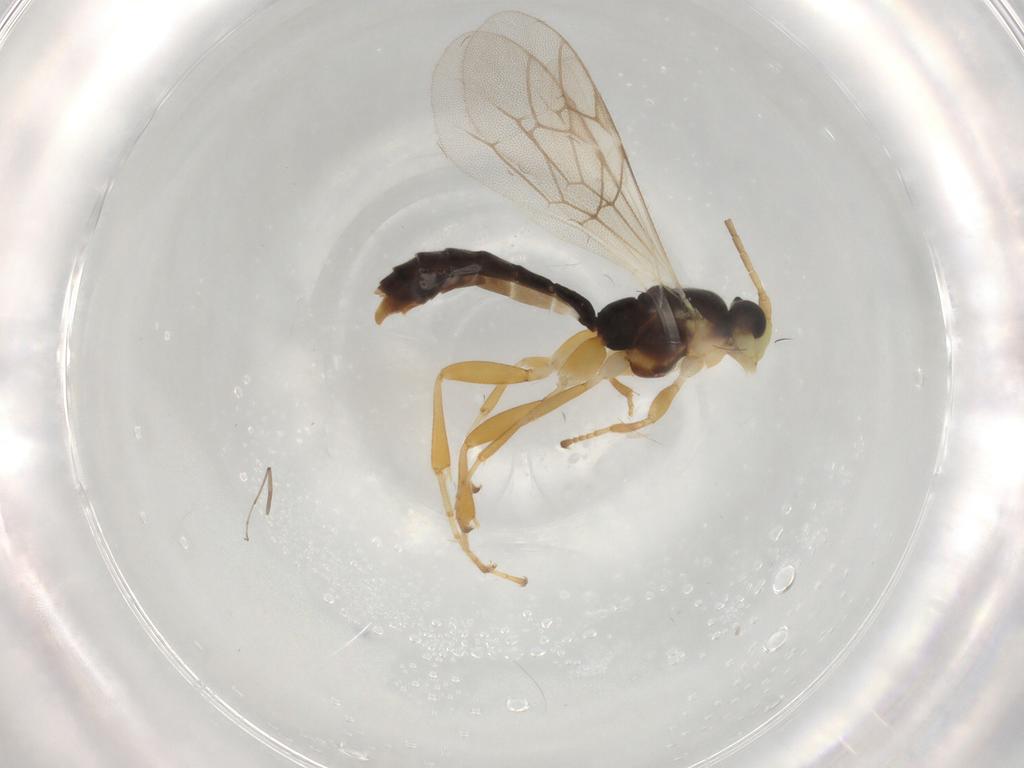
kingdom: Animalia
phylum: Arthropoda
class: Insecta
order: Hymenoptera
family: Ichneumonidae
